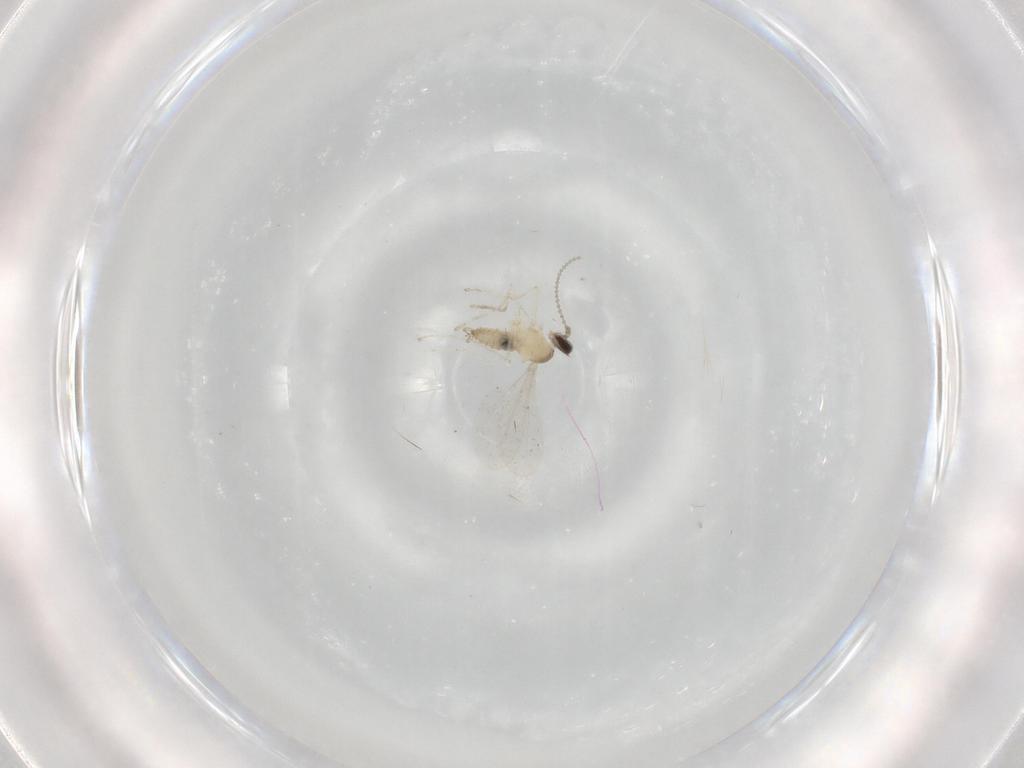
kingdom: Animalia
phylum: Arthropoda
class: Insecta
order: Diptera
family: Cecidomyiidae
